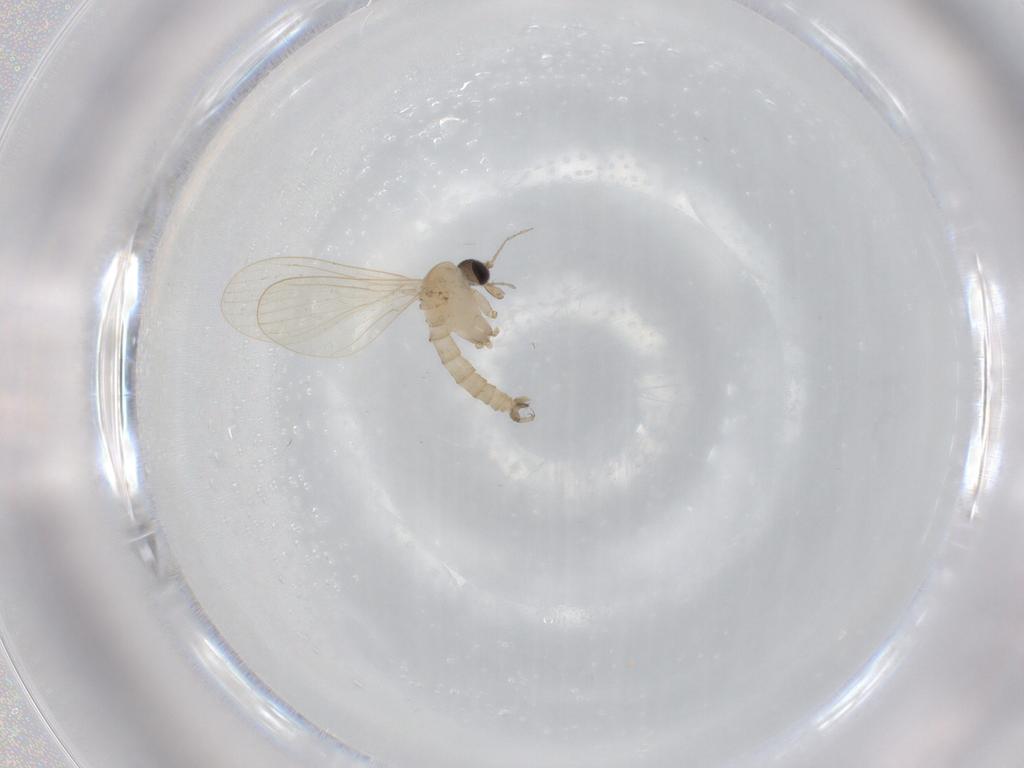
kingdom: Animalia
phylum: Arthropoda
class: Insecta
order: Diptera
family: Psychodidae
